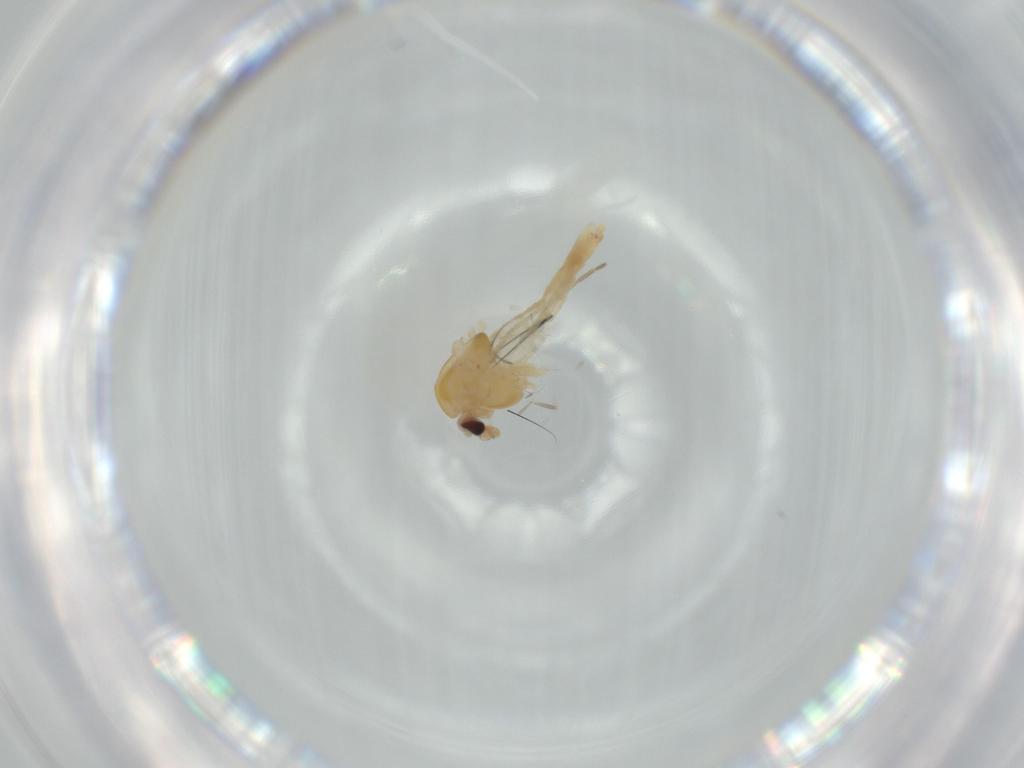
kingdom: Animalia
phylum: Arthropoda
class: Insecta
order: Diptera
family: Chironomidae
